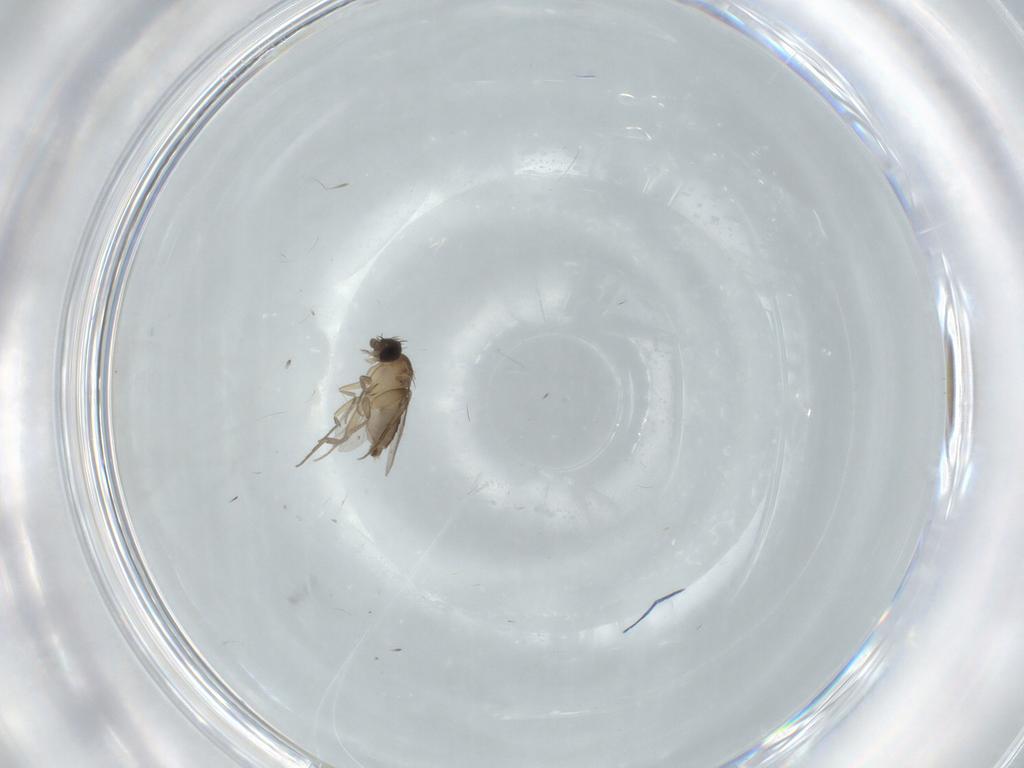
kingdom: Animalia
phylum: Arthropoda
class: Insecta
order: Diptera
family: Phoridae
